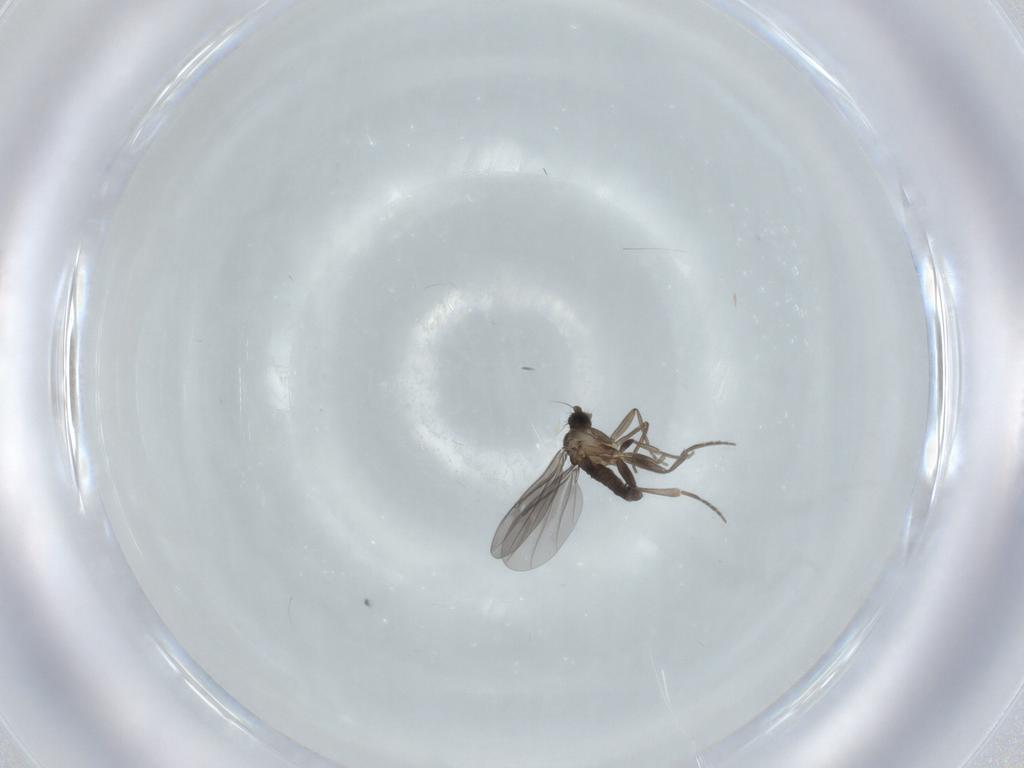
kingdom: Animalia
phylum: Arthropoda
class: Insecta
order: Diptera
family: Phoridae
